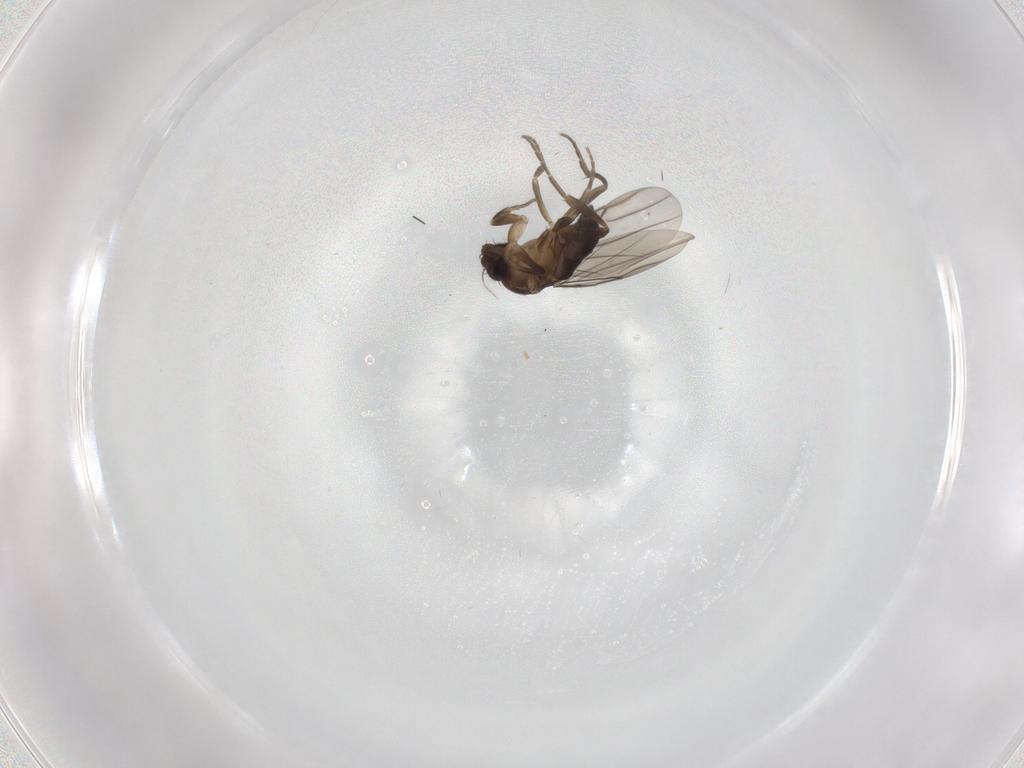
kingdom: Animalia
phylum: Arthropoda
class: Insecta
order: Diptera
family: Phoridae
